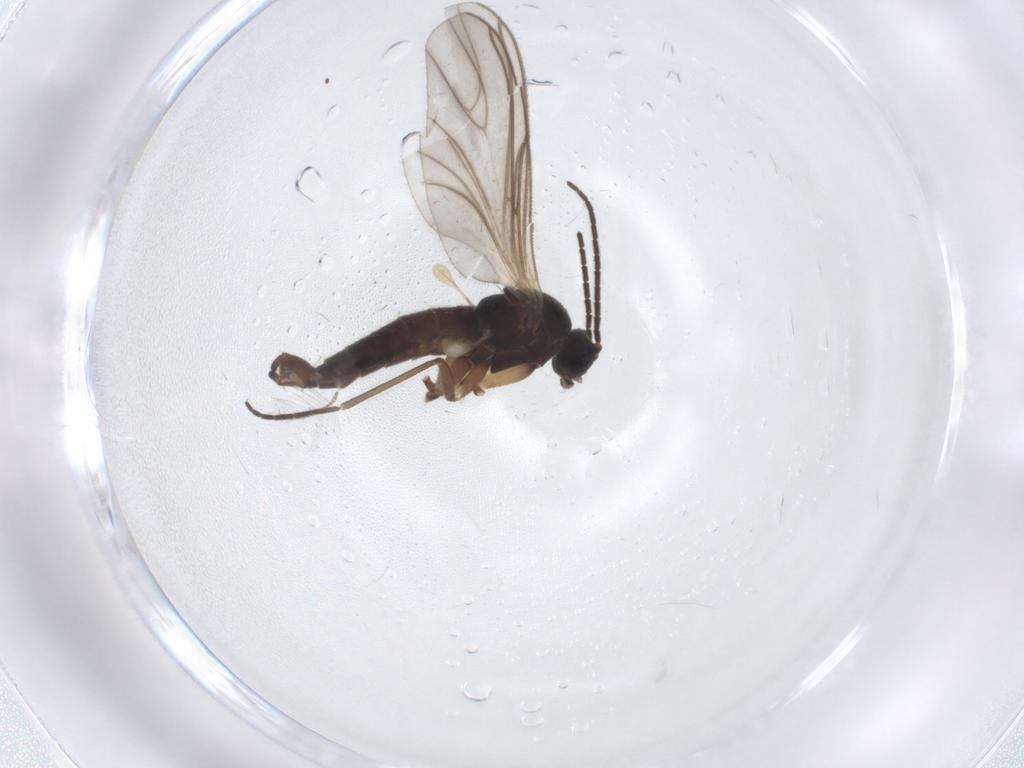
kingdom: Animalia
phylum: Arthropoda
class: Insecta
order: Diptera
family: Sciaridae
